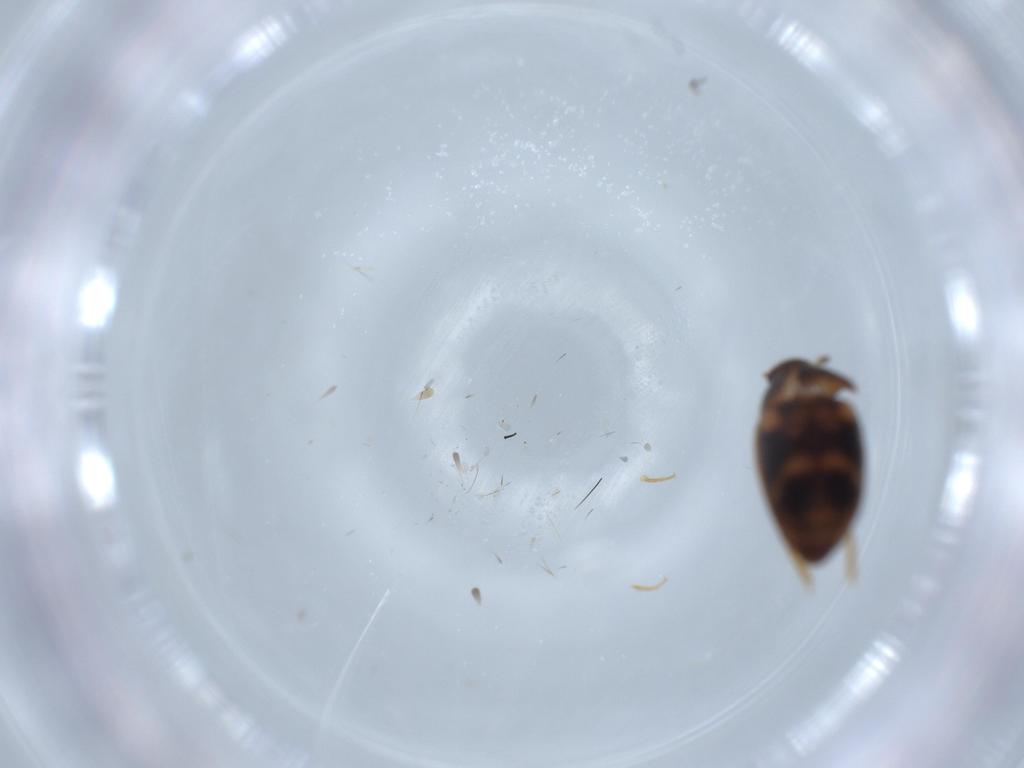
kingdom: Animalia
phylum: Arthropoda
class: Insecta
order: Coleoptera
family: Mycetophagidae
